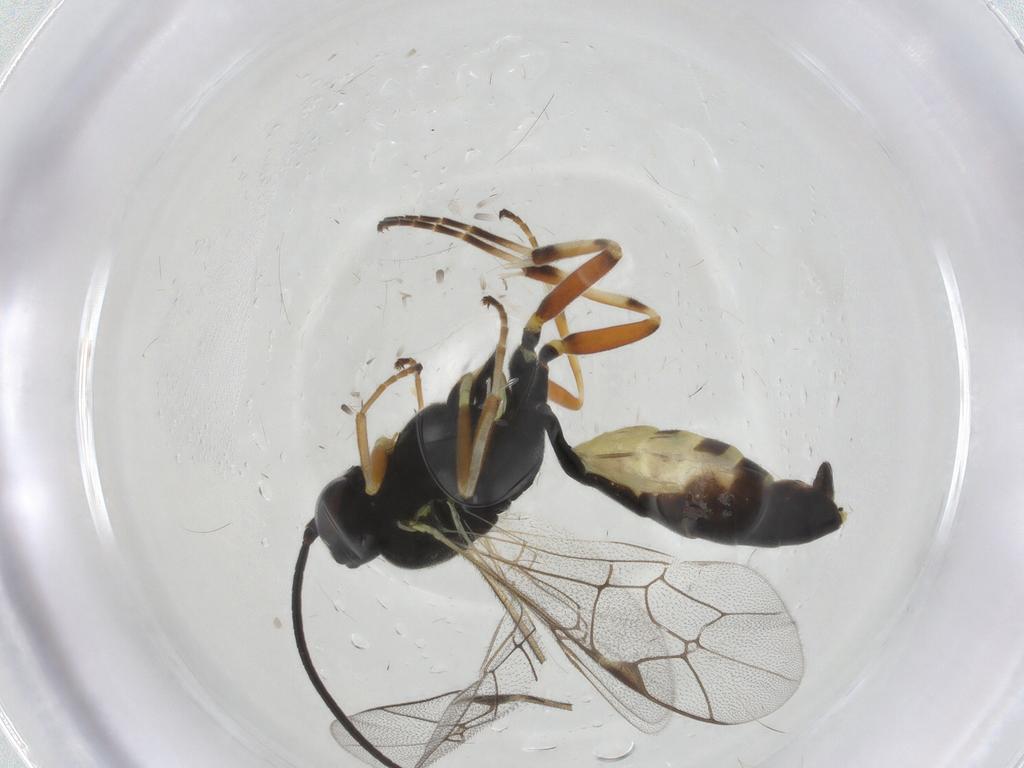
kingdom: Animalia
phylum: Arthropoda
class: Insecta
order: Hymenoptera
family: Ichneumonidae
